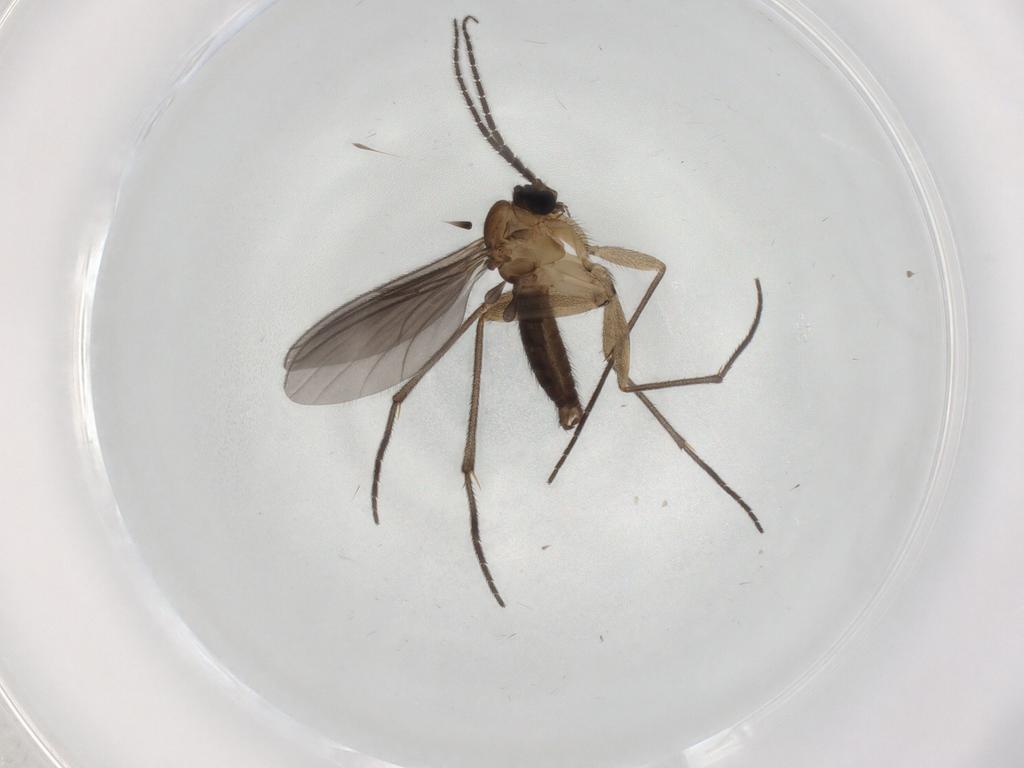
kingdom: Animalia
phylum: Arthropoda
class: Insecta
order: Diptera
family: Sciaridae
